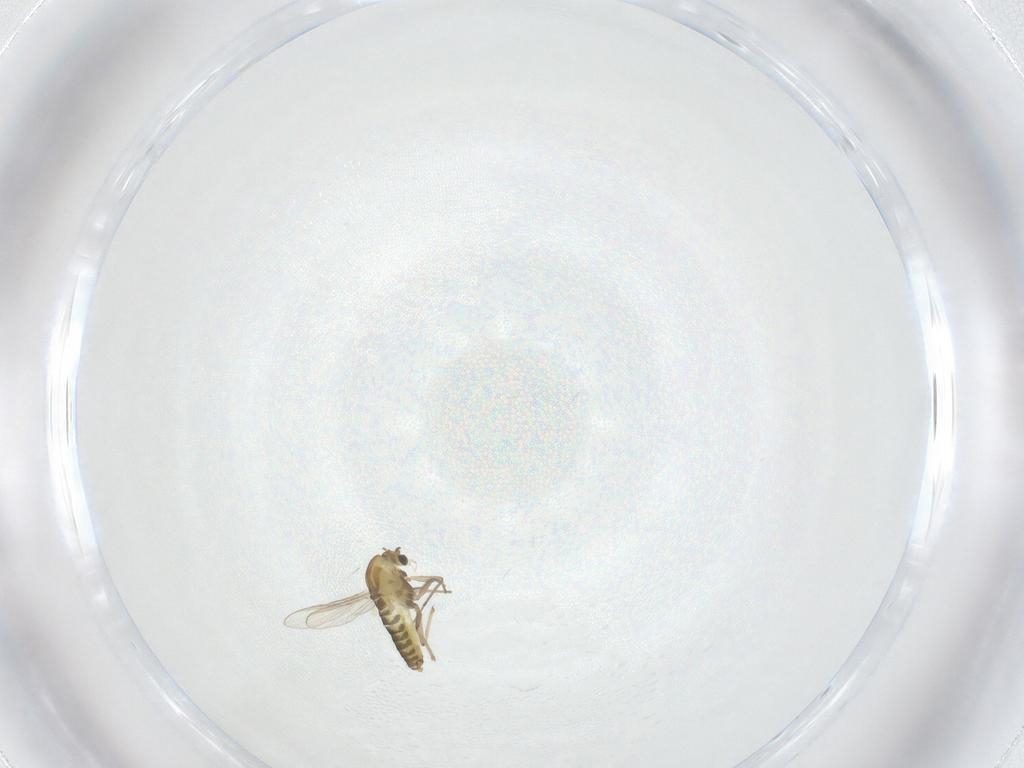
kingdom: Animalia
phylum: Arthropoda
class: Insecta
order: Diptera
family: Chironomidae
